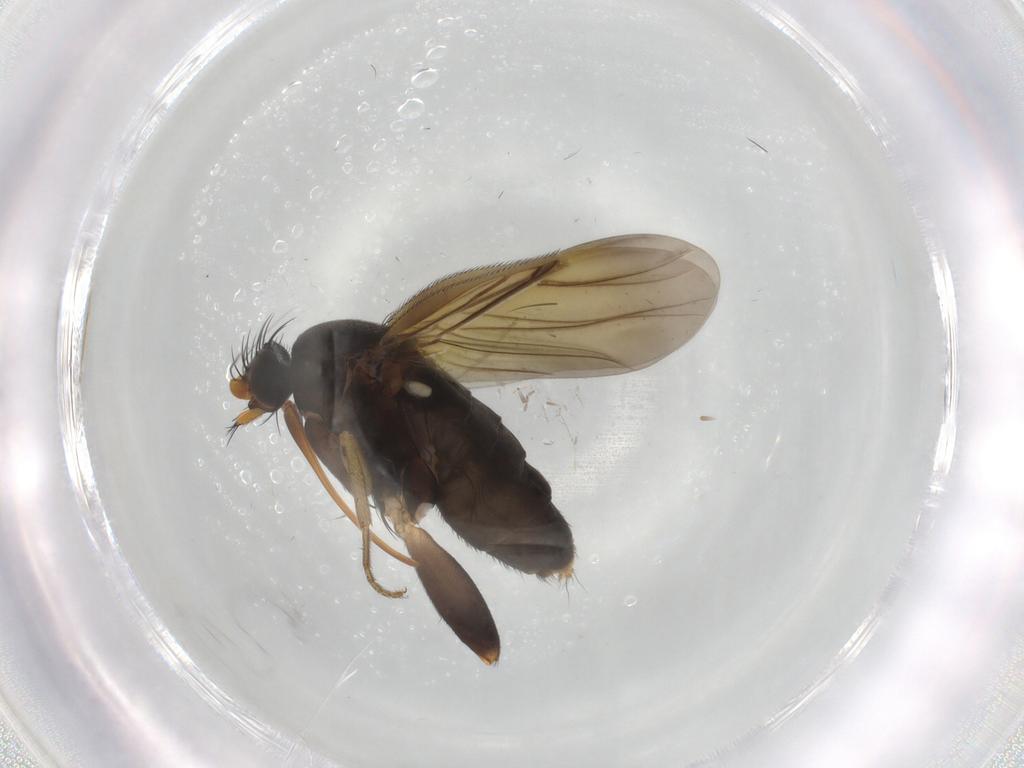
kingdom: Animalia
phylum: Arthropoda
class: Insecta
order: Diptera
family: Phoridae
